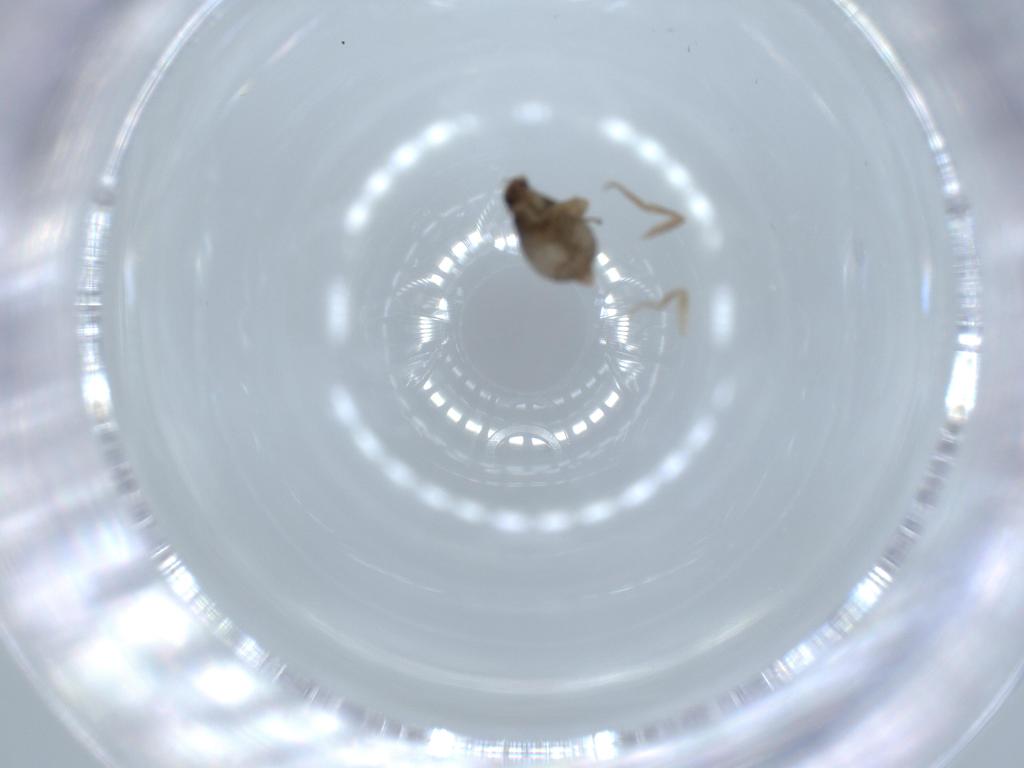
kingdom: Animalia
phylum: Arthropoda
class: Insecta
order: Diptera
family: Phoridae
